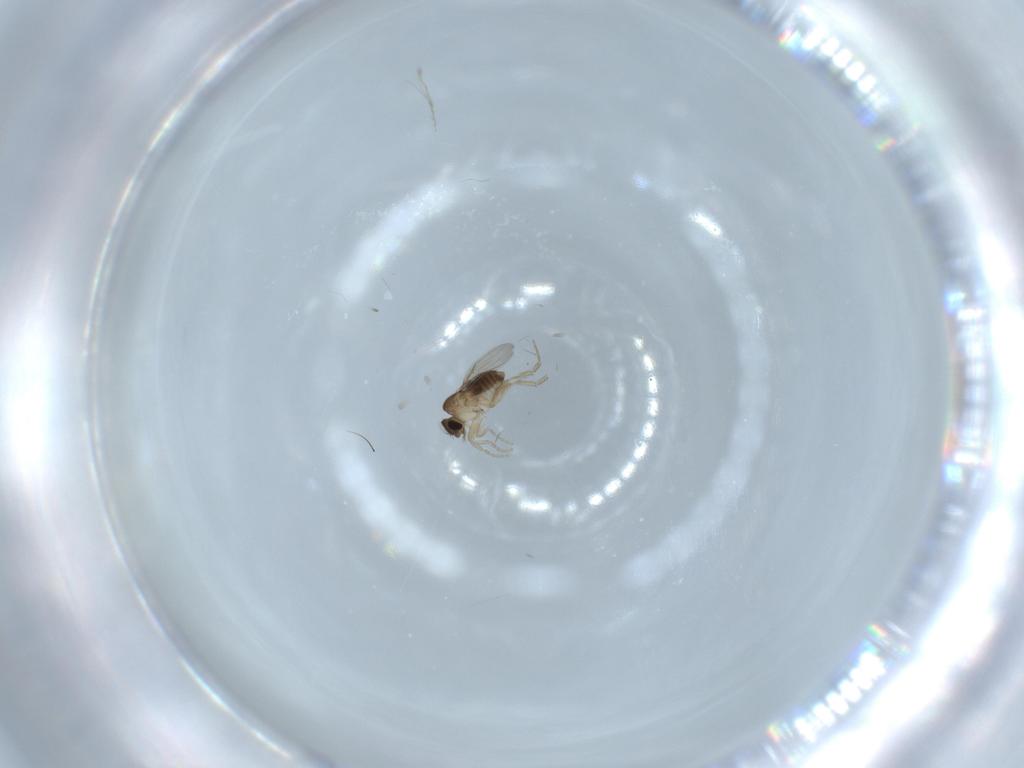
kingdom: Animalia
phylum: Arthropoda
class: Insecta
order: Diptera
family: Phoridae
